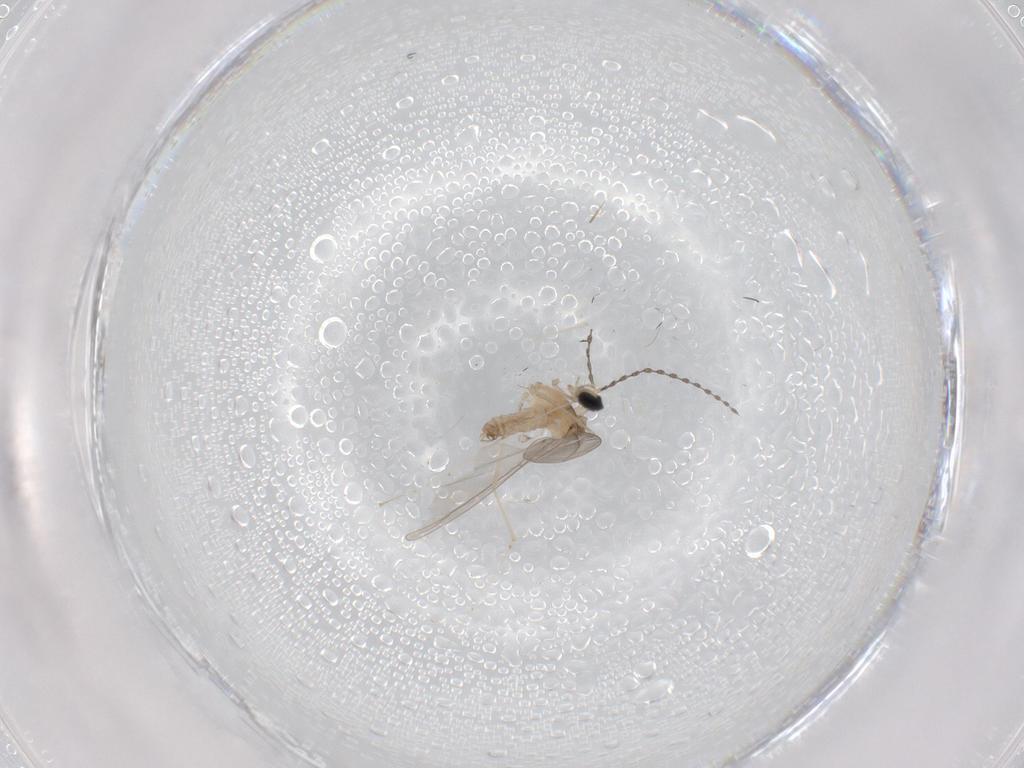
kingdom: Animalia
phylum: Arthropoda
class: Insecta
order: Diptera
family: Cecidomyiidae
